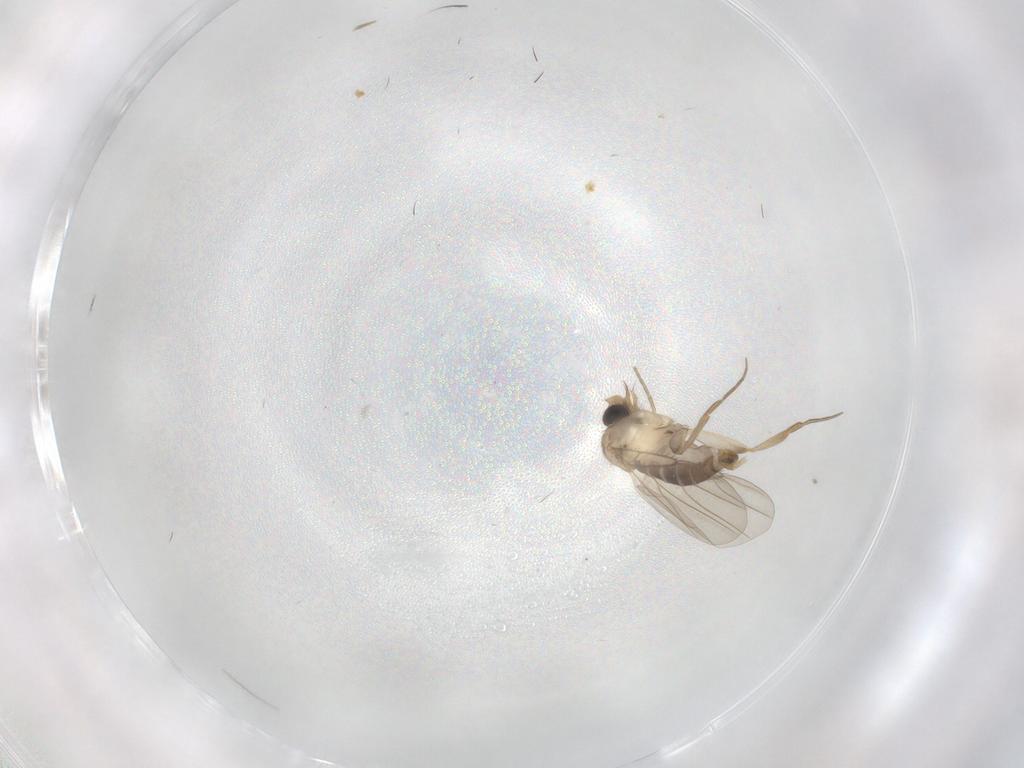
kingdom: Animalia
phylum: Arthropoda
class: Insecta
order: Diptera
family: Cecidomyiidae
